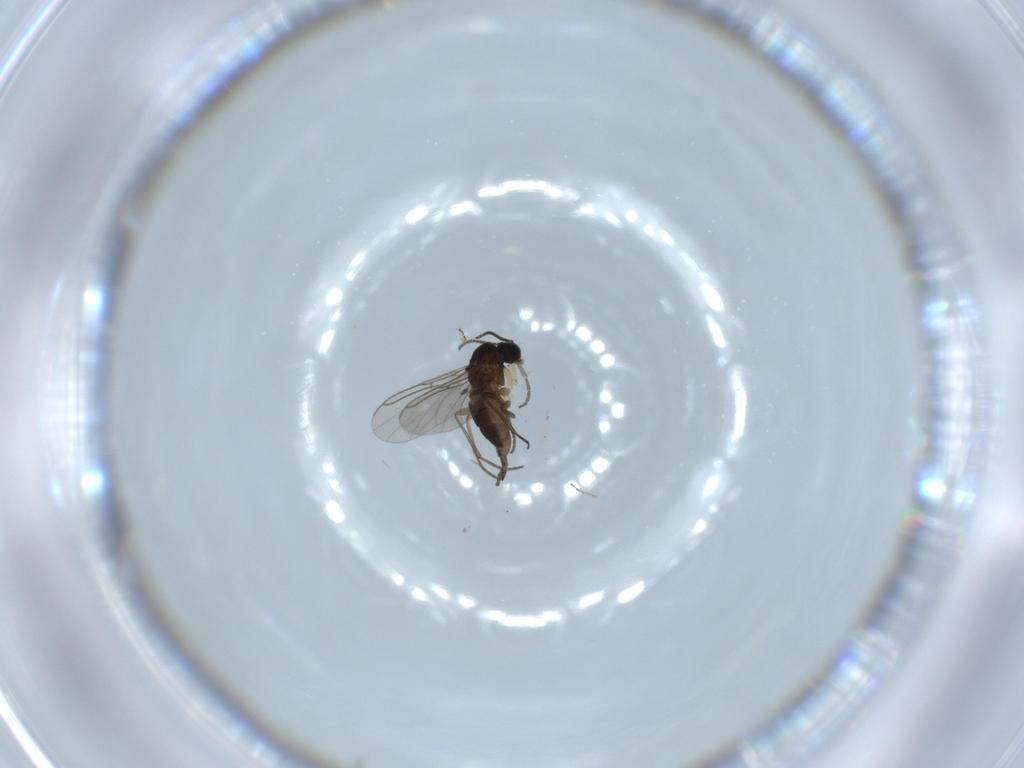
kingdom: Animalia
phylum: Arthropoda
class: Insecta
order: Diptera
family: Sciaridae
